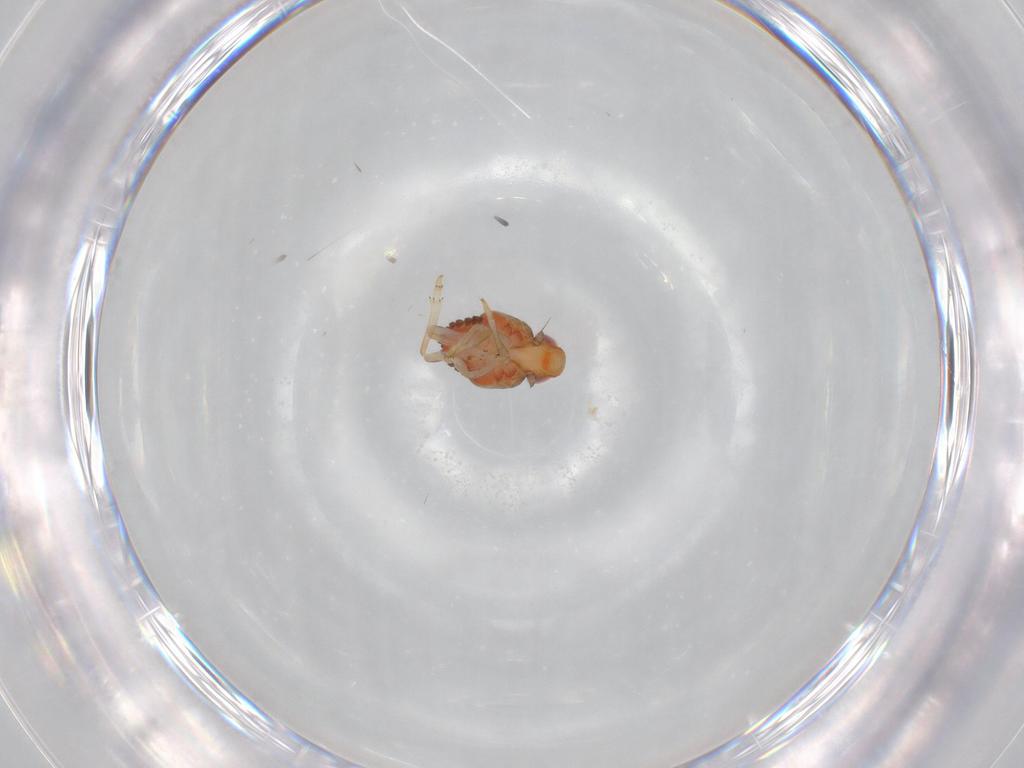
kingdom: Animalia
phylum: Arthropoda
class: Insecta
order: Hemiptera
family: Issidae
